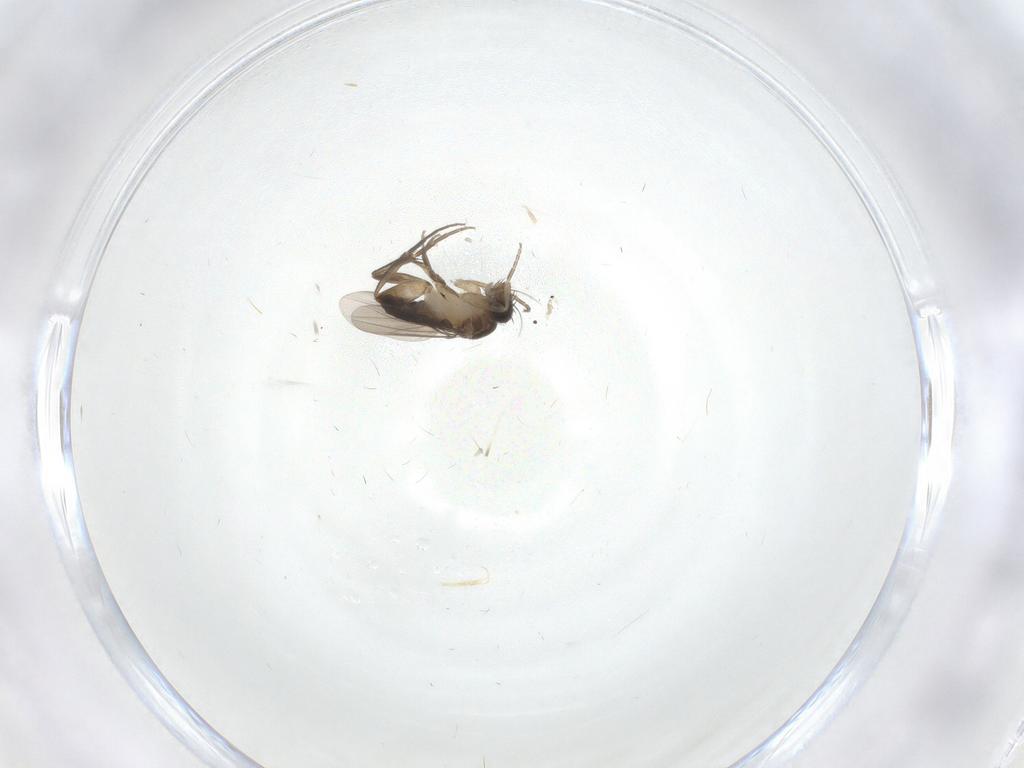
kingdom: Animalia
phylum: Arthropoda
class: Insecta
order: Diptera
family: Phoridae
